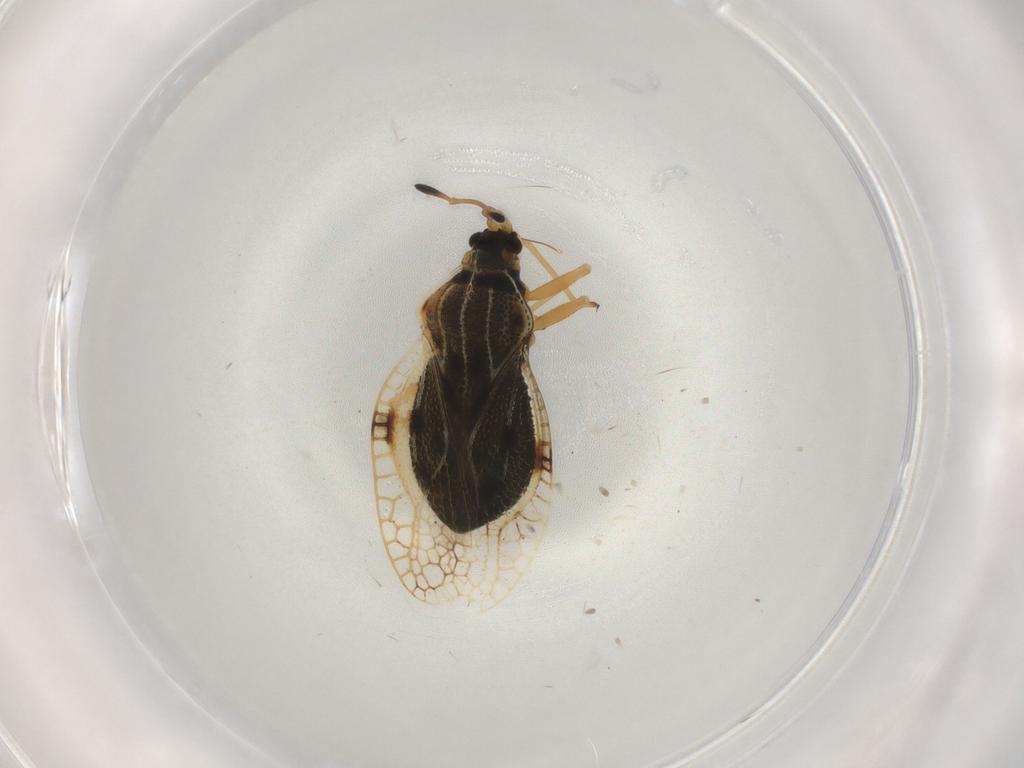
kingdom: Animalia
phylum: Arthropoda
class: Insecta
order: Hemiptera
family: Tingidae
